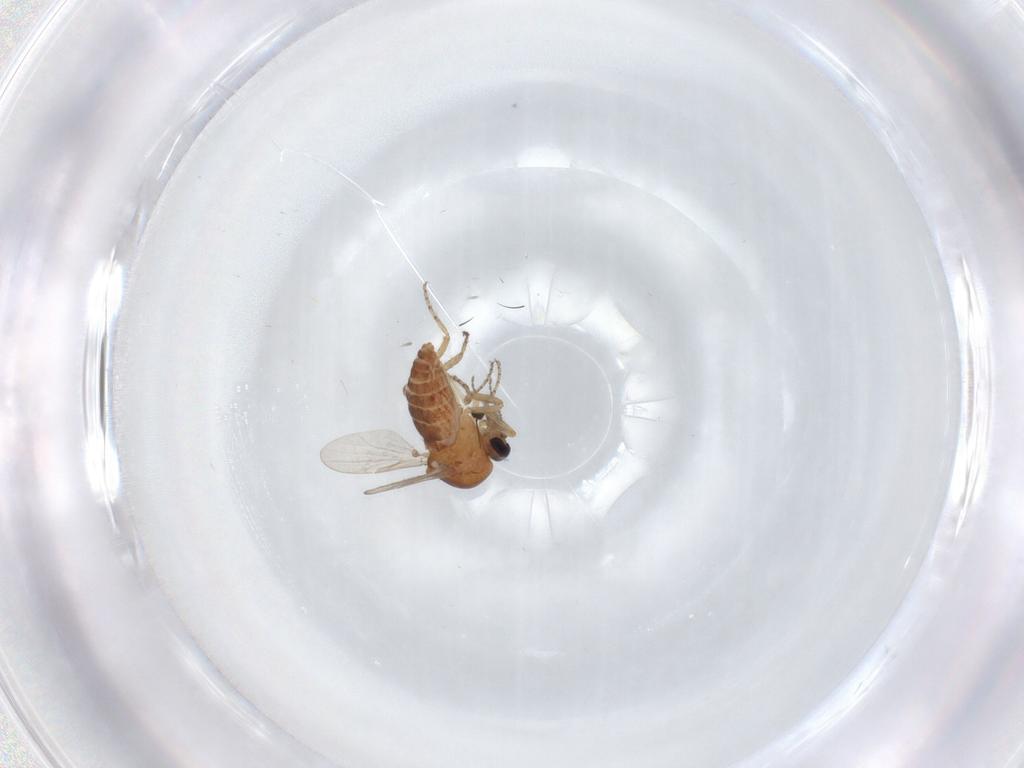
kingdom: Animalia
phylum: Arthropoda
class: Insecta
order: Diptera
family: Ceratopogonidae
